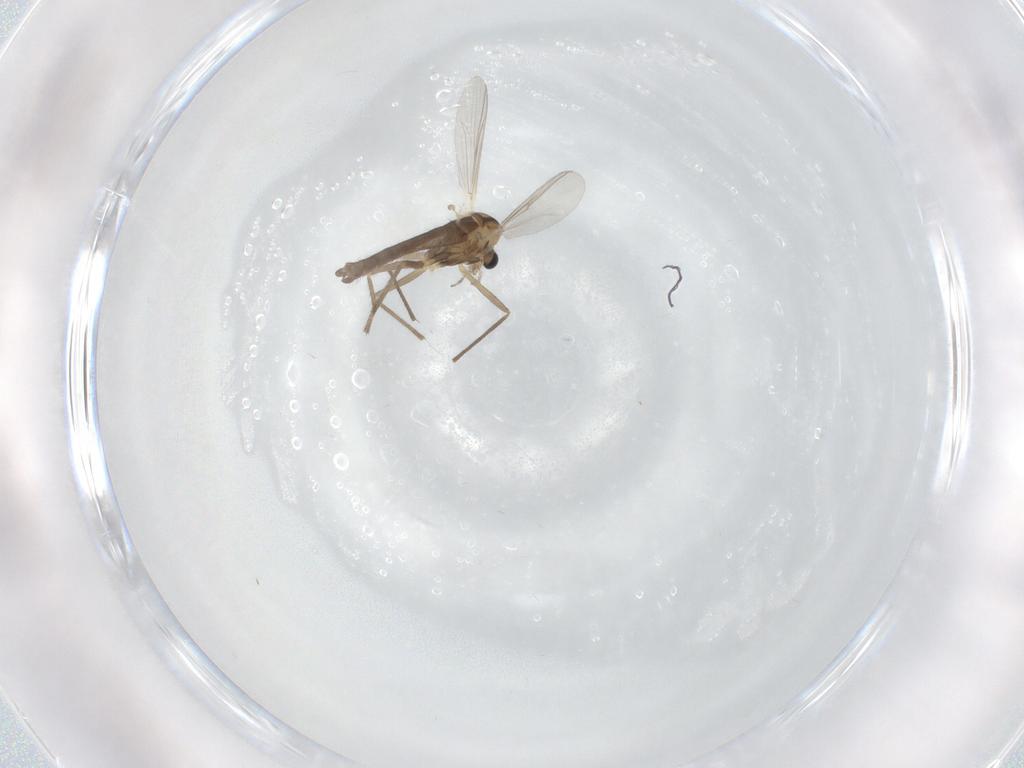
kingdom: Animalia
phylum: Arthropoda
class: Insecta
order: Diptera
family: Chironomidae
